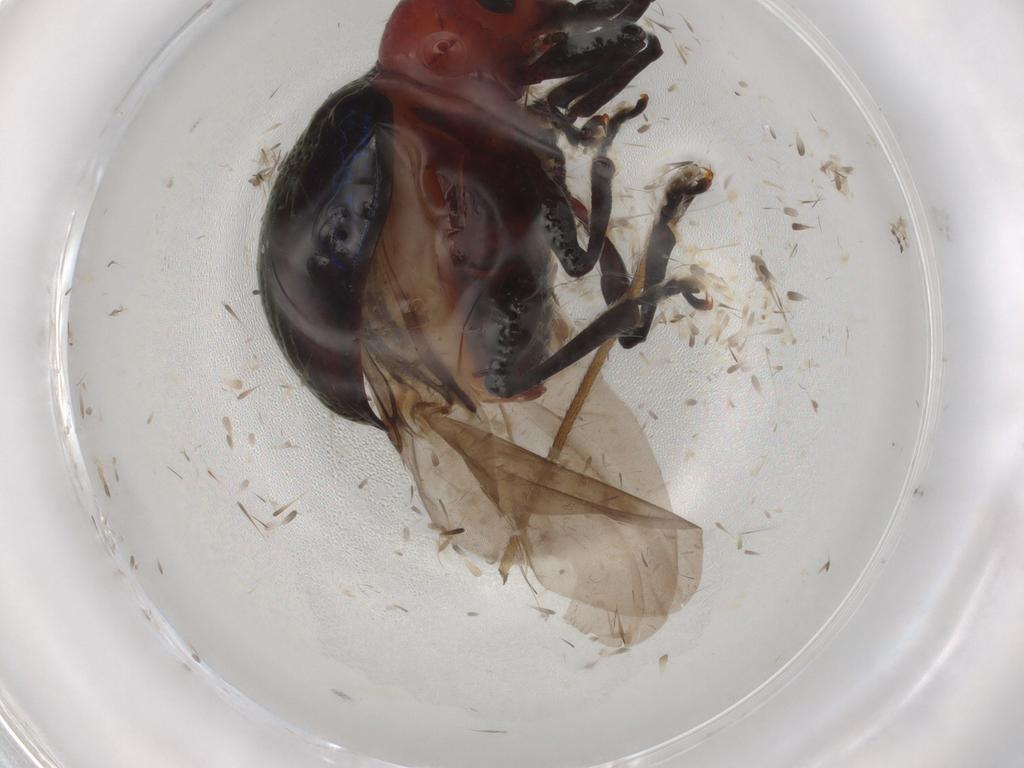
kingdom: Animalia
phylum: Arthropoda
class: Insecta
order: Coleoptera
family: Chrysomelidae
